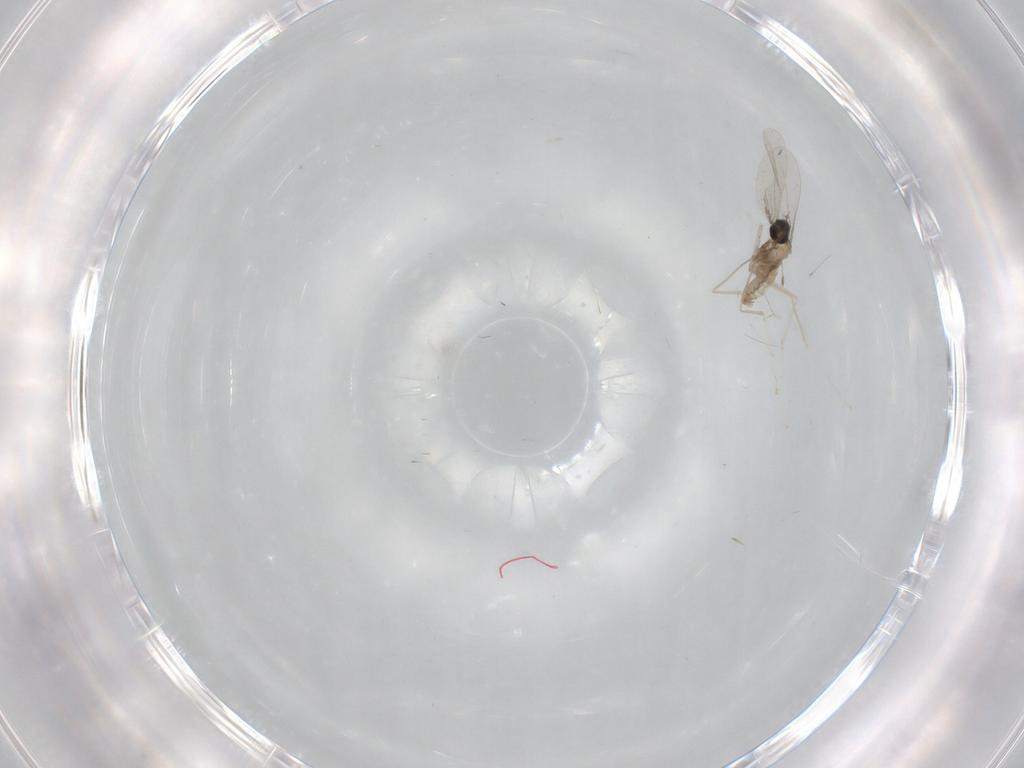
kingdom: Animalia
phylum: Arthropoda
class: Insecta
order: Diptera
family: Ceratopogonidae
